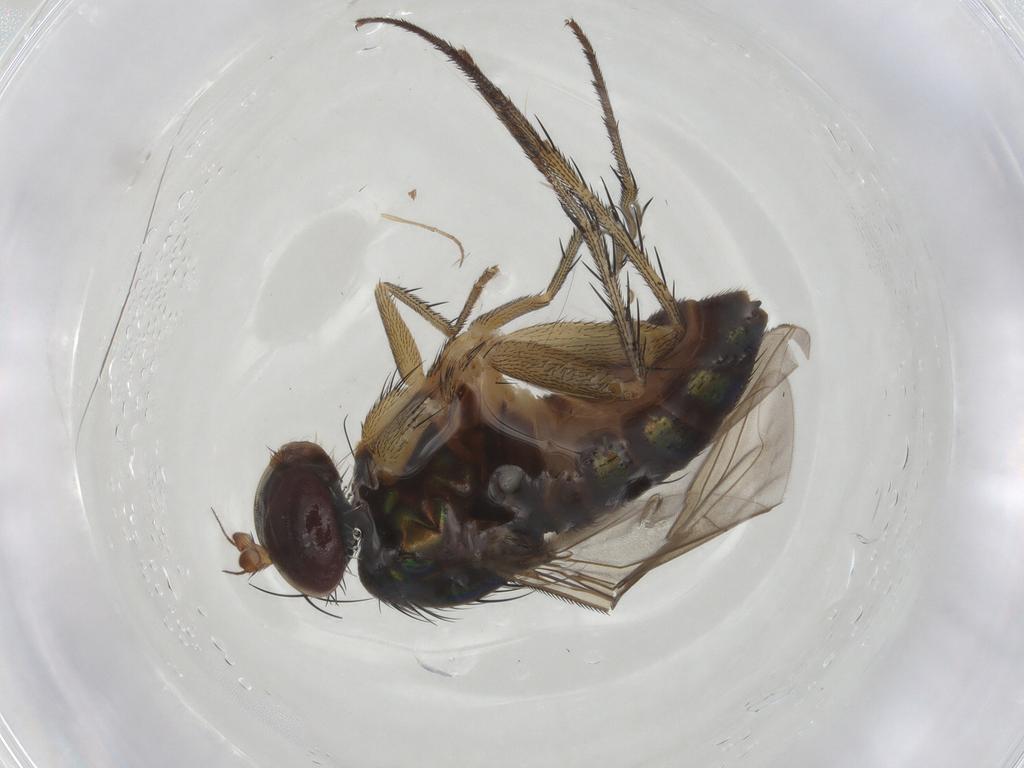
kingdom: Animalia
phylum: Arthropoda
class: Insecta
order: Diptera
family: Dolichopodidae
